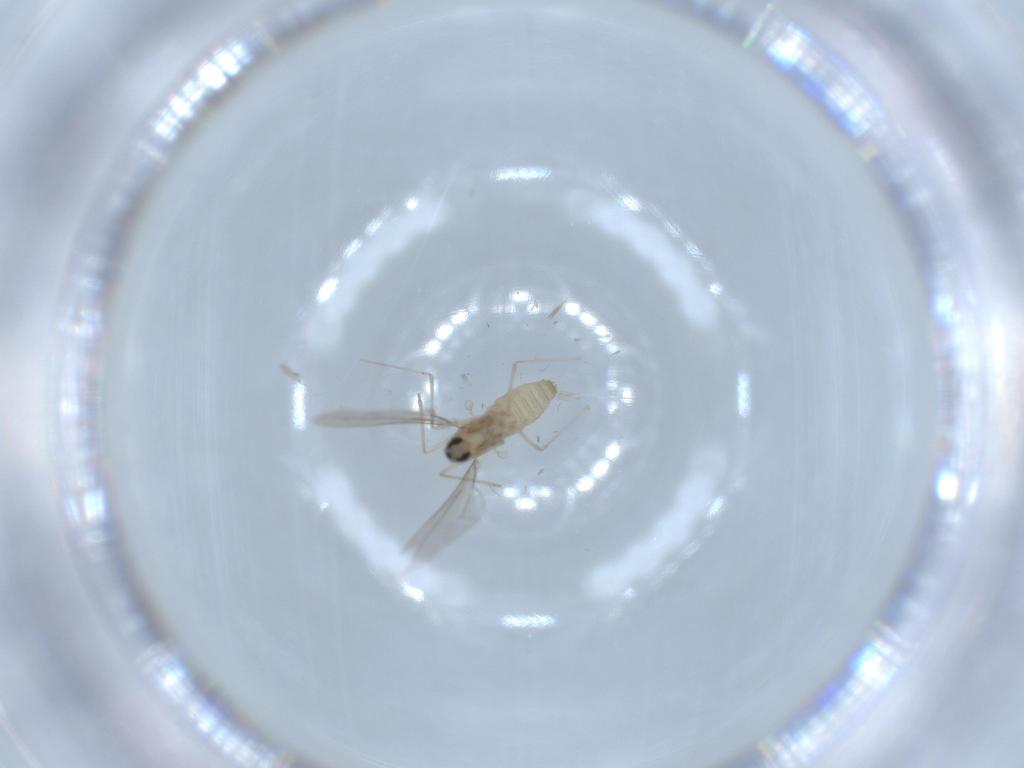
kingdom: Animalia
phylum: Arthropoda
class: Insecta
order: Diptera
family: Cecidomyiidae
